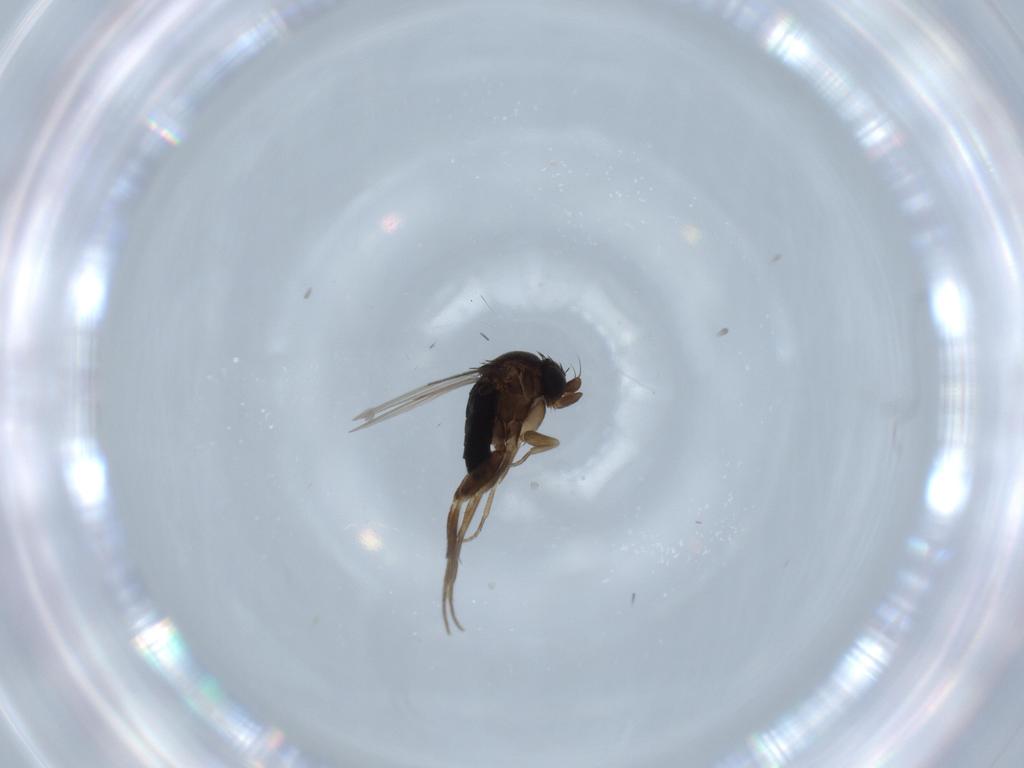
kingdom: Animalia
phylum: Arthropoda
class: Insecta
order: Diptera
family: Phoridae
